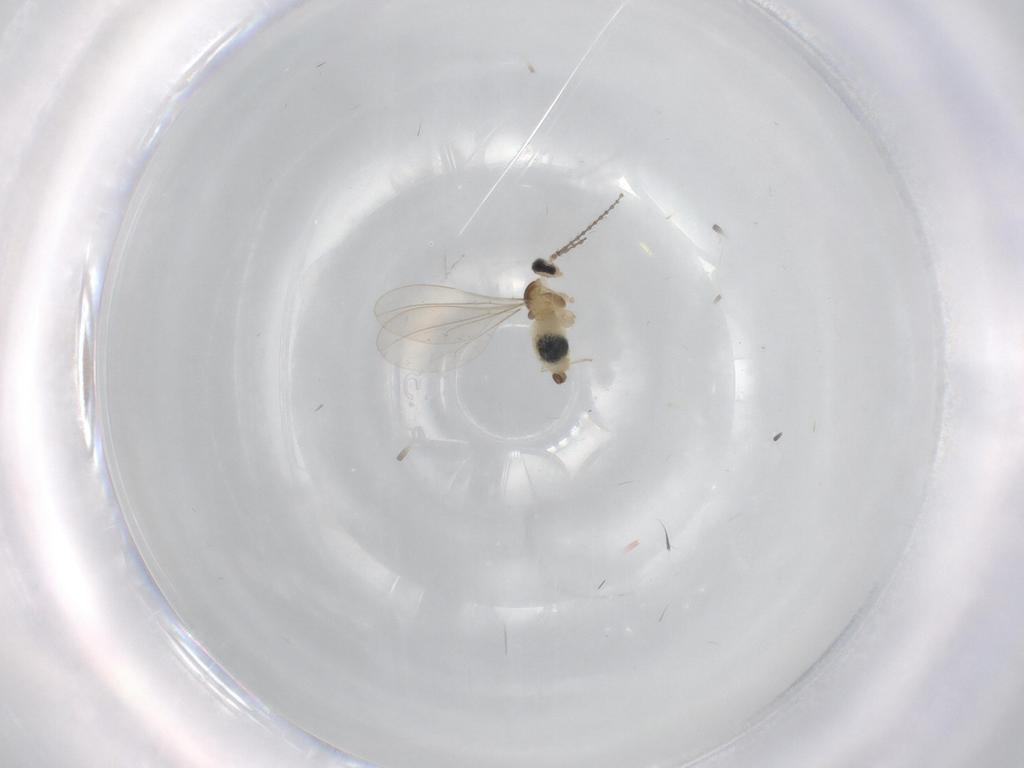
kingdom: Animalia
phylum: Arthropoda
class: Insecta
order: Diptera
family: Cecidomyiidae
